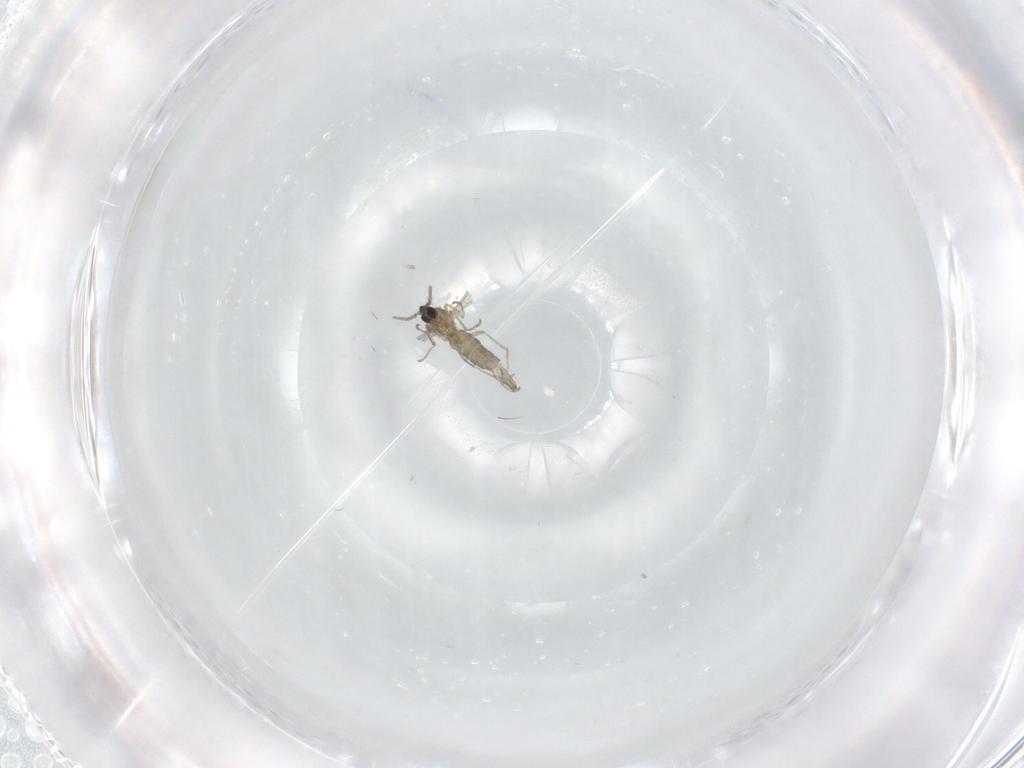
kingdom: Animalia
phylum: Arthropoda
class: Insecta
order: Diptera
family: Cecidomyiidae
